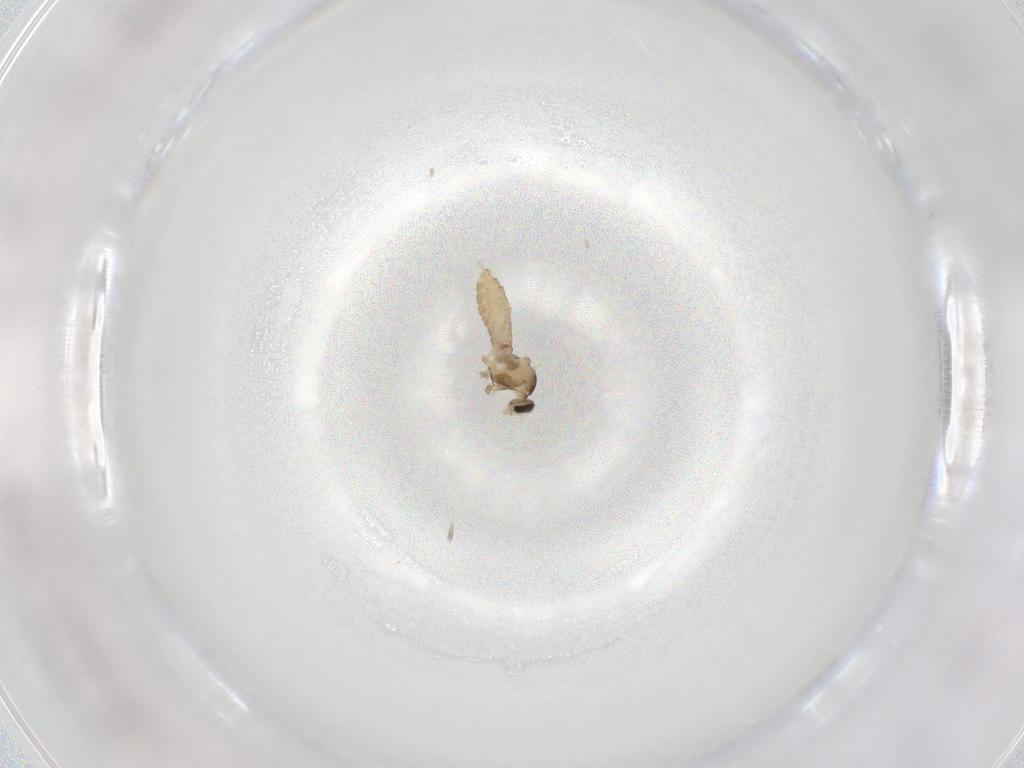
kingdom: Animalia
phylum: Arthropoda
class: Insecta
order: Diptera
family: Cecidomyiidae
